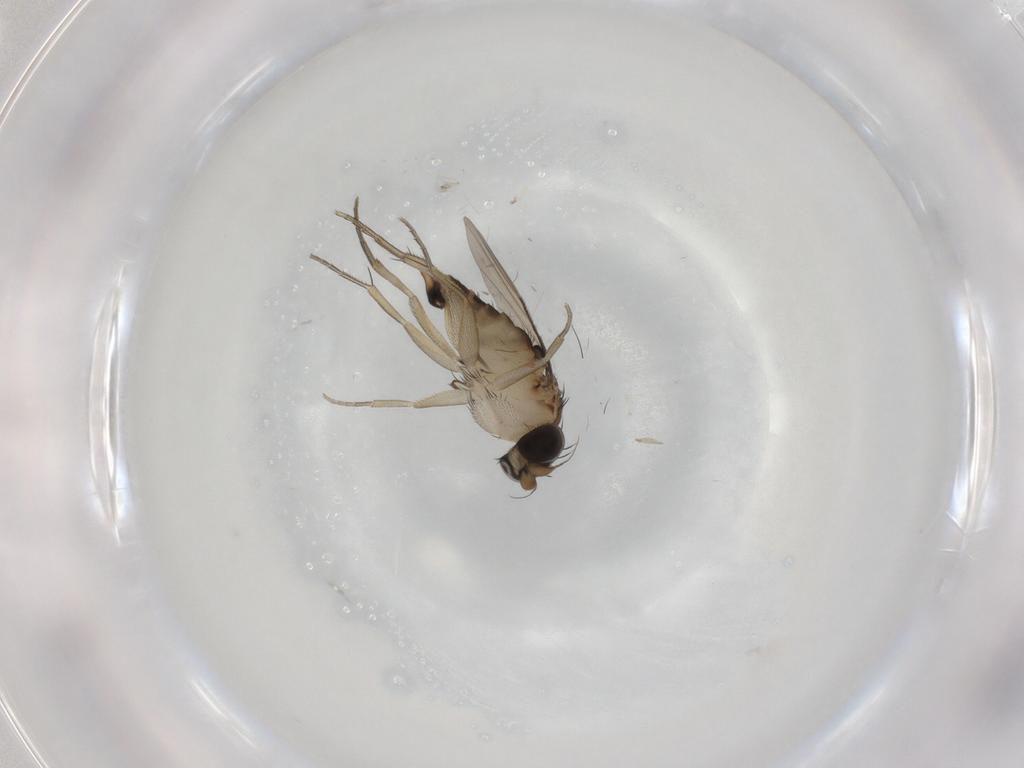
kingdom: Animalia
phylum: Arthropoda
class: Insecta
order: Diptera
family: Phoridae
